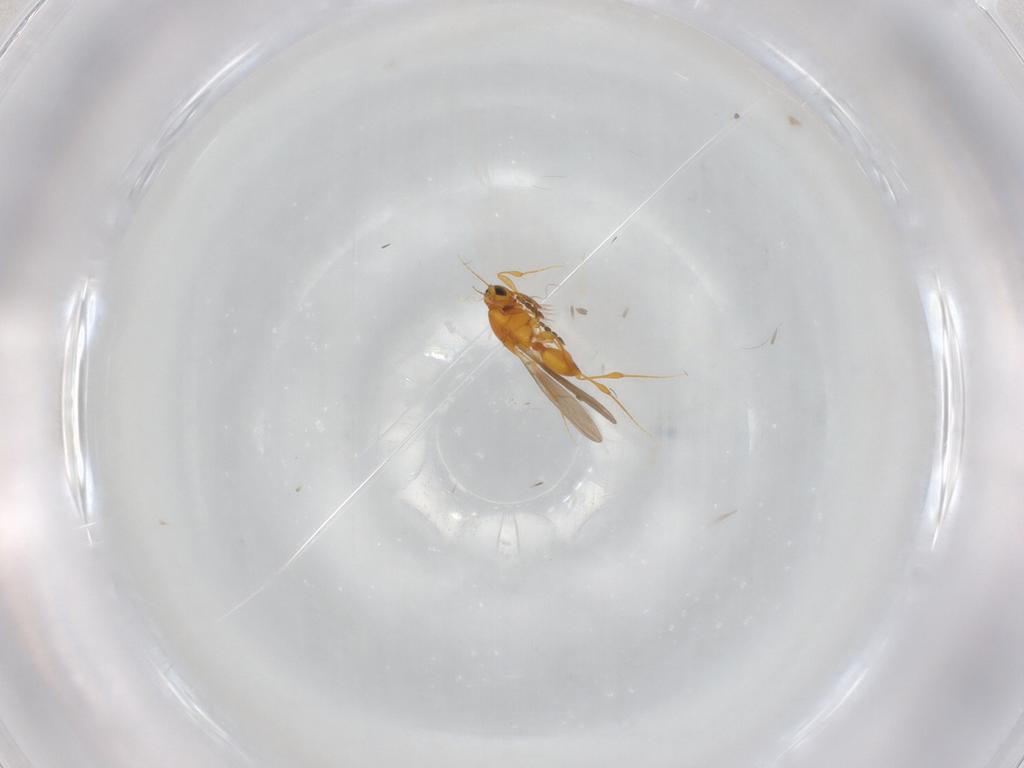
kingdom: Animalia
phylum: Arthropoda
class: Insecta
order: Hymenoptera
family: Platygastridae
